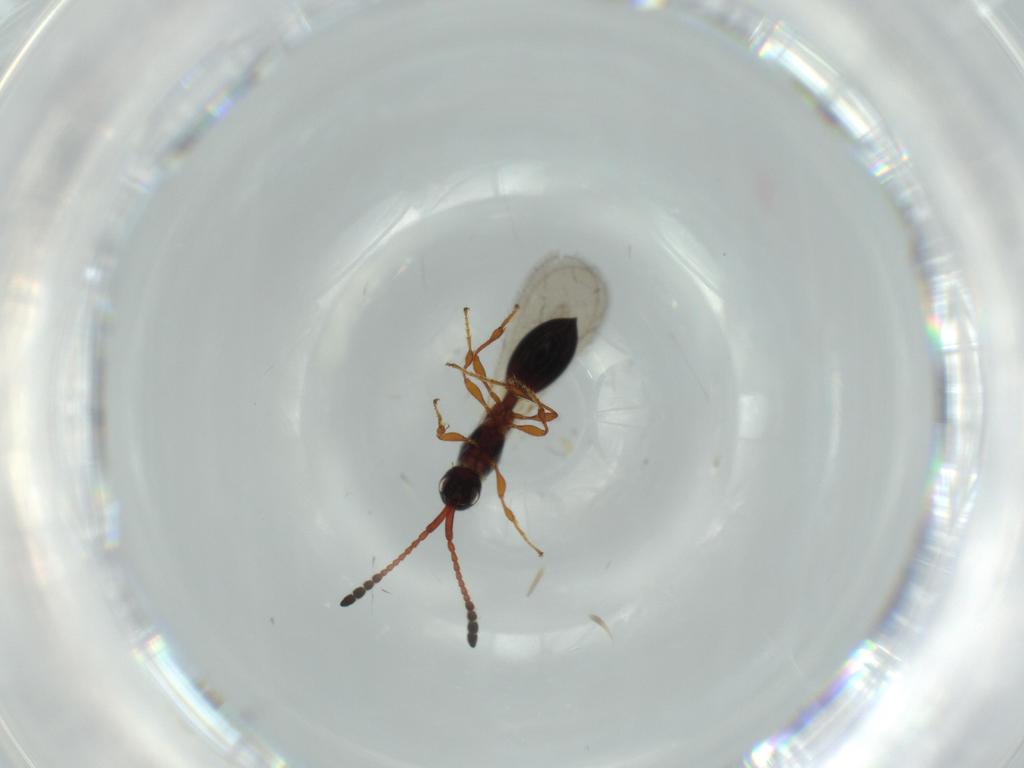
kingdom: Animalia
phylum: Arthropoda
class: Insecta
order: Hymenoptera
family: Diapriidae
